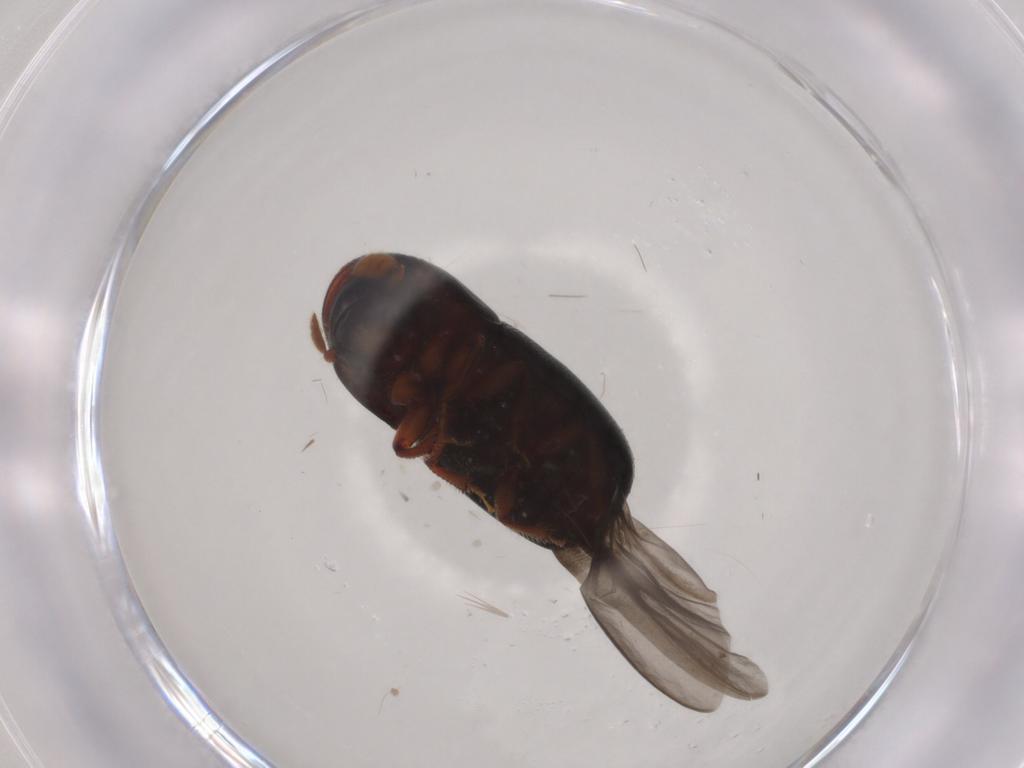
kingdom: Animalia
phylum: Arthropoda
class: Insecta
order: Coleoptera
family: Curculionidae
